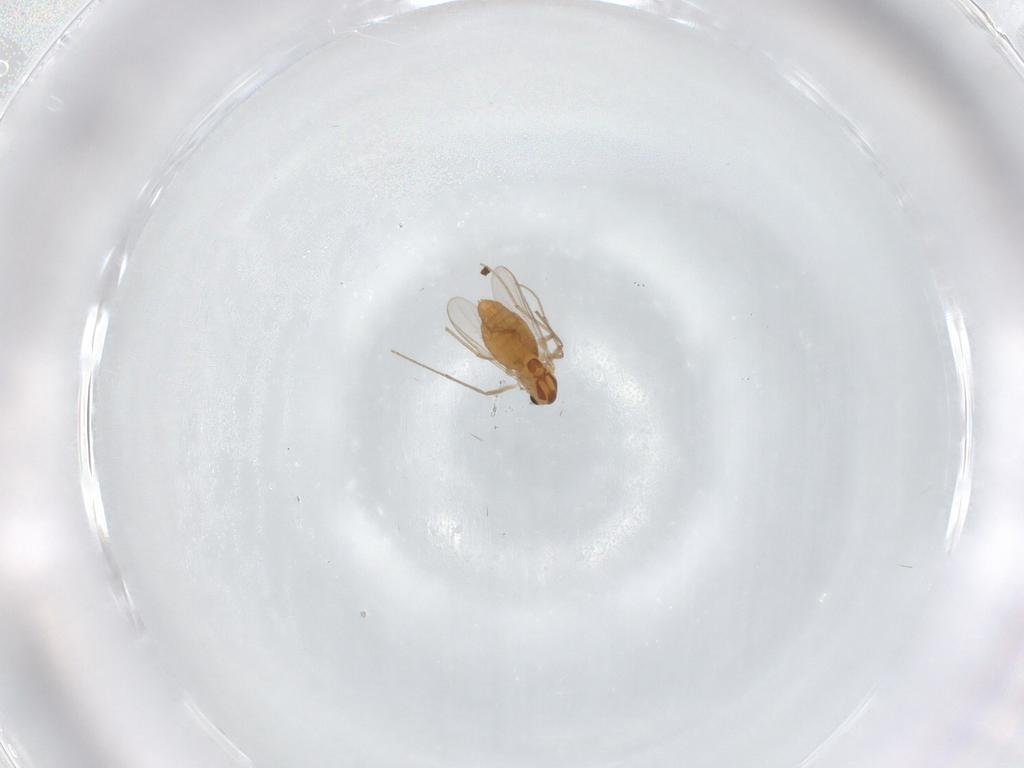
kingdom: Animalia
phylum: Arthropoda
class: Insecta
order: Diptera
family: Chironomidae
